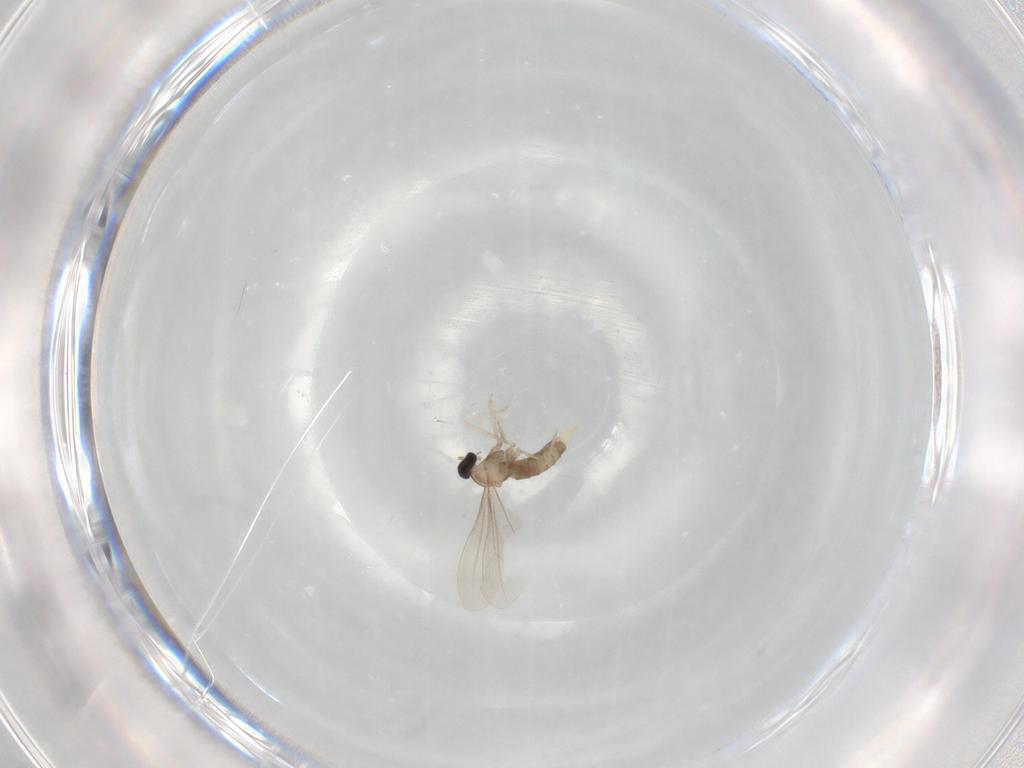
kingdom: Animalia
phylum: Arthropoda
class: Insecta
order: Diptera
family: Cecidomyiidae
